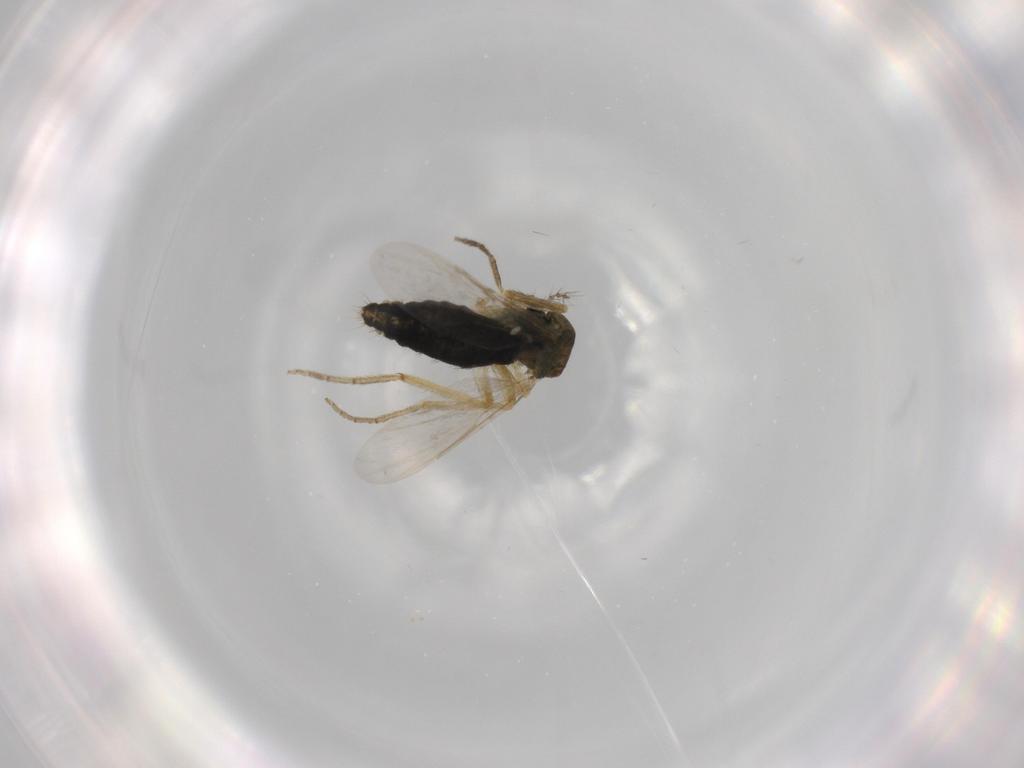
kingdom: Animalia
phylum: Arthropoda
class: Insecta
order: Diptera
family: Ceratopogonidae
